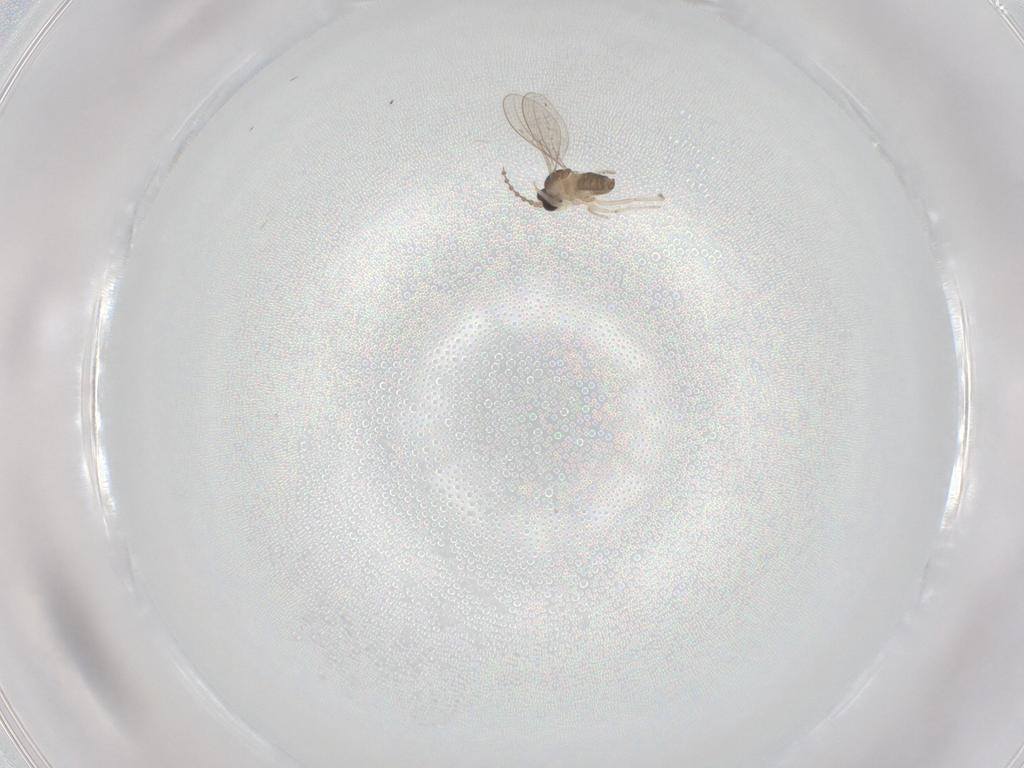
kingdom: Animalia
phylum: Arthropoda
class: Insecta
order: Diptera
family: Cecidomyiidae
